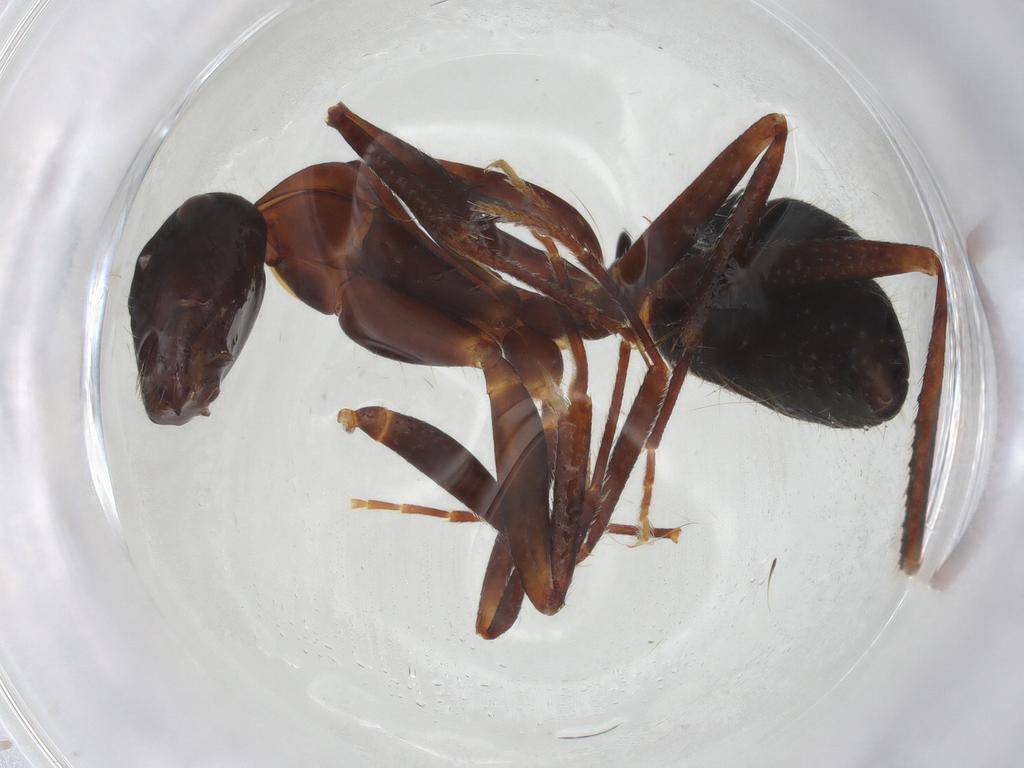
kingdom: Animalia
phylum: Arthropoda
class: Insecta
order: Hymenoptera
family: Formicidae
